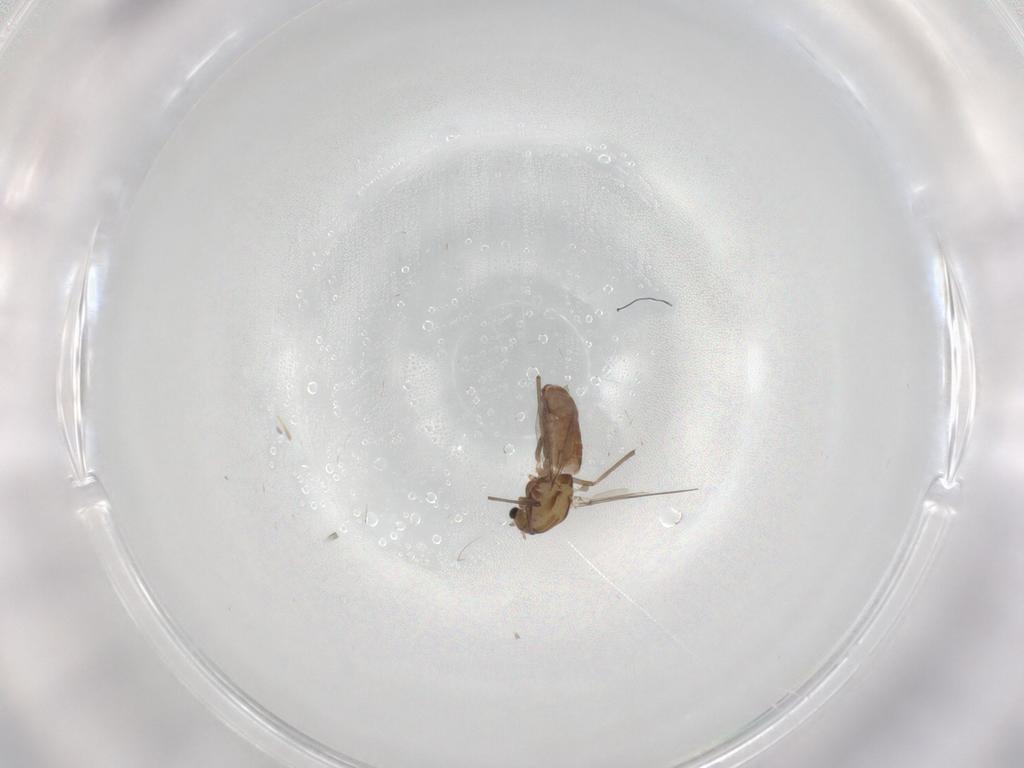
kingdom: Animalia
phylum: Arthropoda
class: Insecta
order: Diptera
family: Chironomidae
